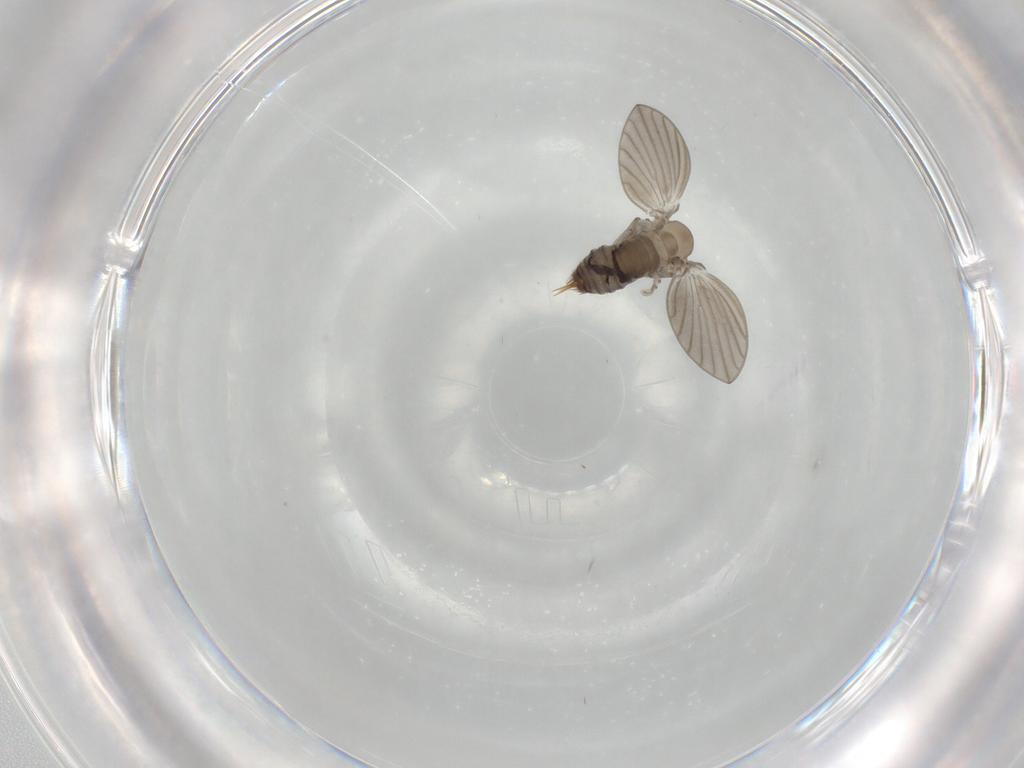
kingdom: Animalia
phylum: Arthropoda
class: Insecta
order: Diptera
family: Psychodidae
